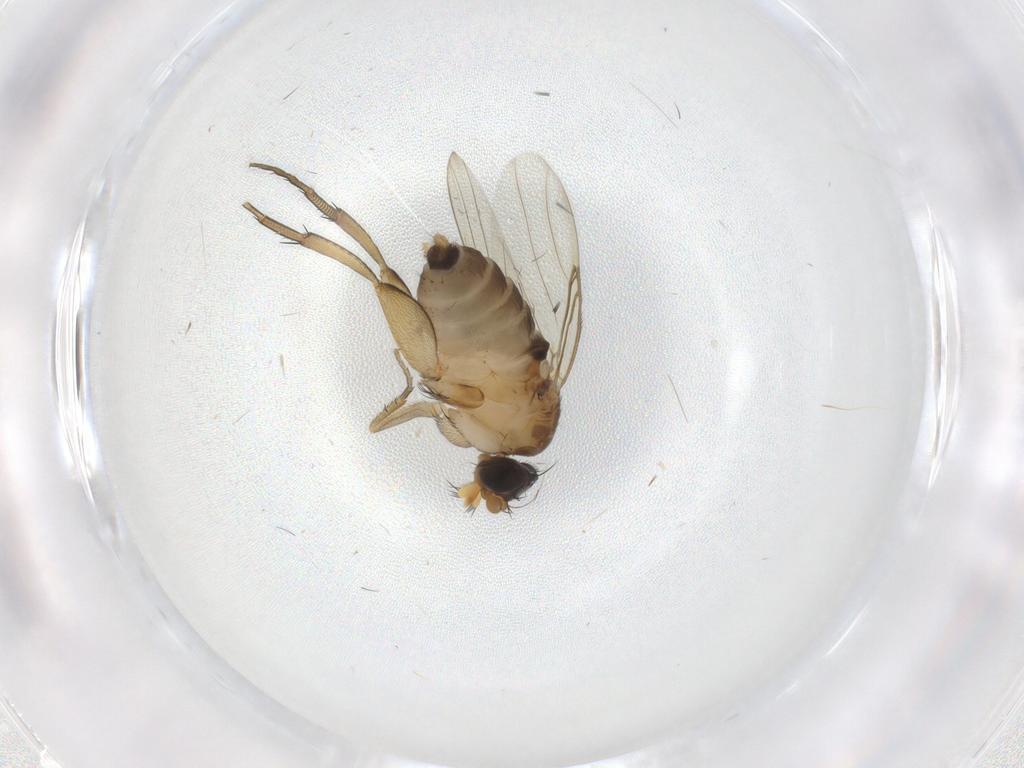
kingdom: Animalia
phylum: Arthropoda
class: Insecta
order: Diptera
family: Phoridae
